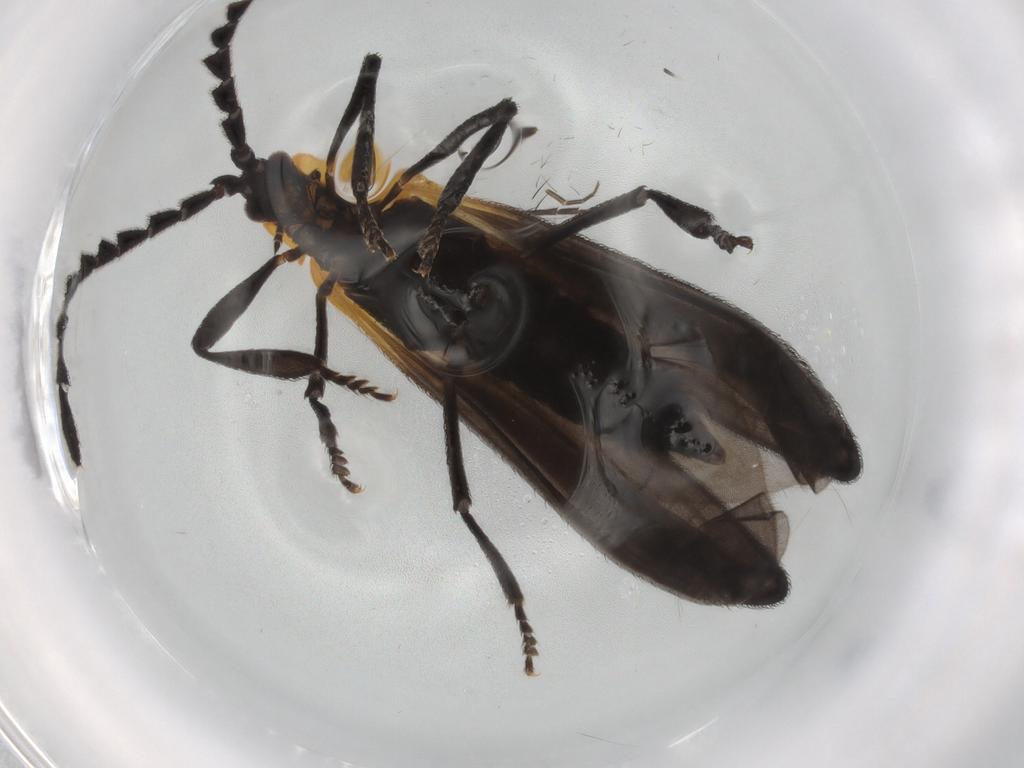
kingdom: Animalia
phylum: Arthropoda
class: Insecta
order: Coleoptera
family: Lycidae
